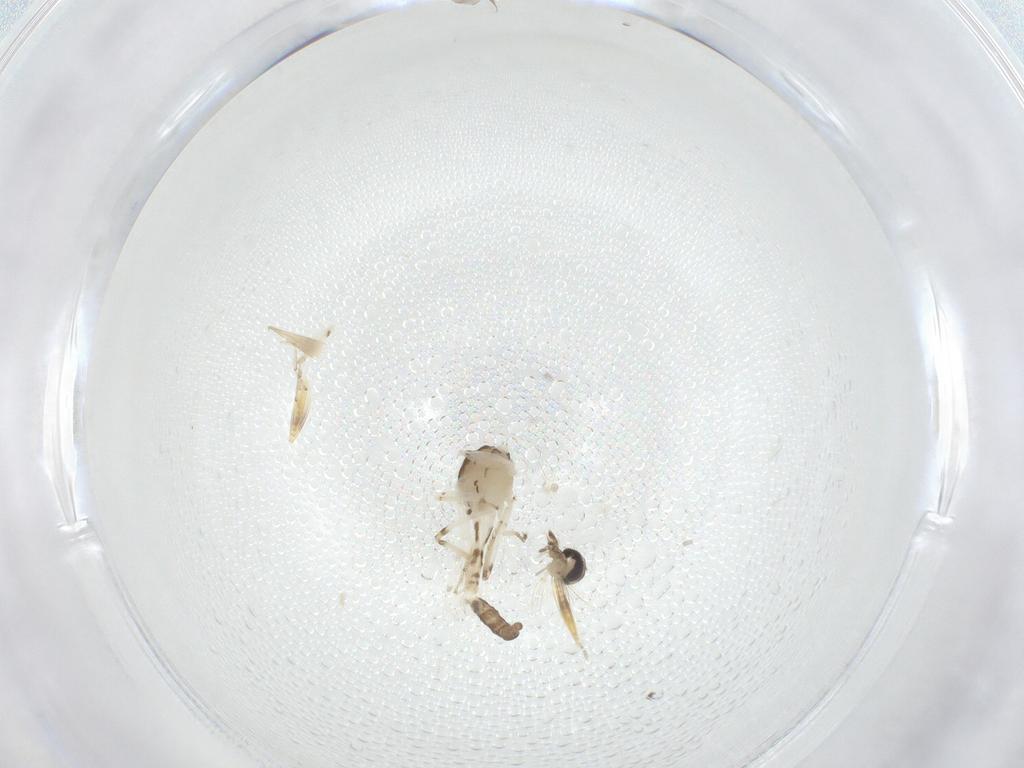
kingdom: Animalia
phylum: Arthropoda
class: Insecta
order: Diptera
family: Ceratopogonidae
